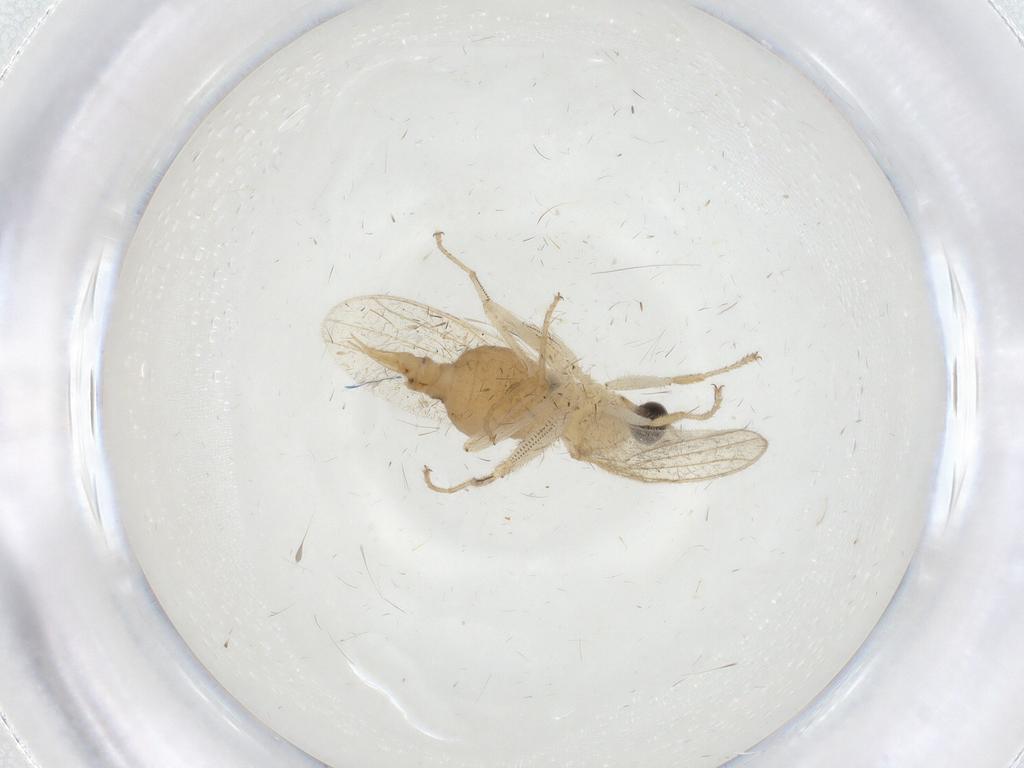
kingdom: Animalia
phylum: Arthropoda
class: Insecta
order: Diptera
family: Hybotidae
